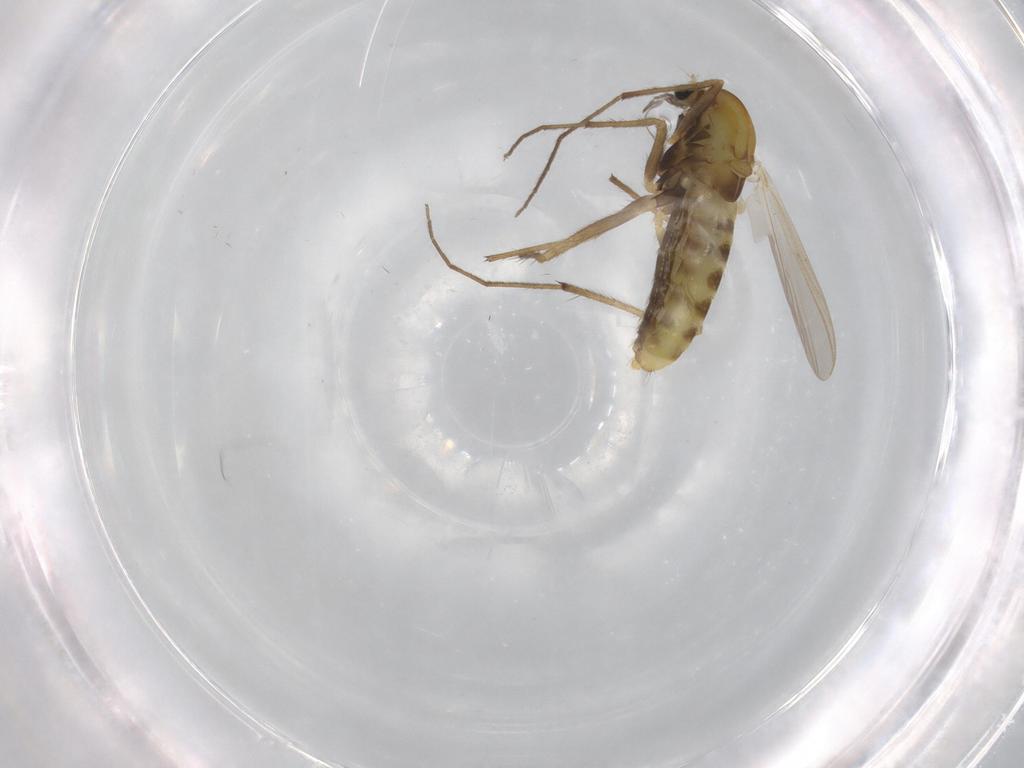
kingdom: Animalia
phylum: Arthropoda
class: Insecta
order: Diptera
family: Chironomidae
